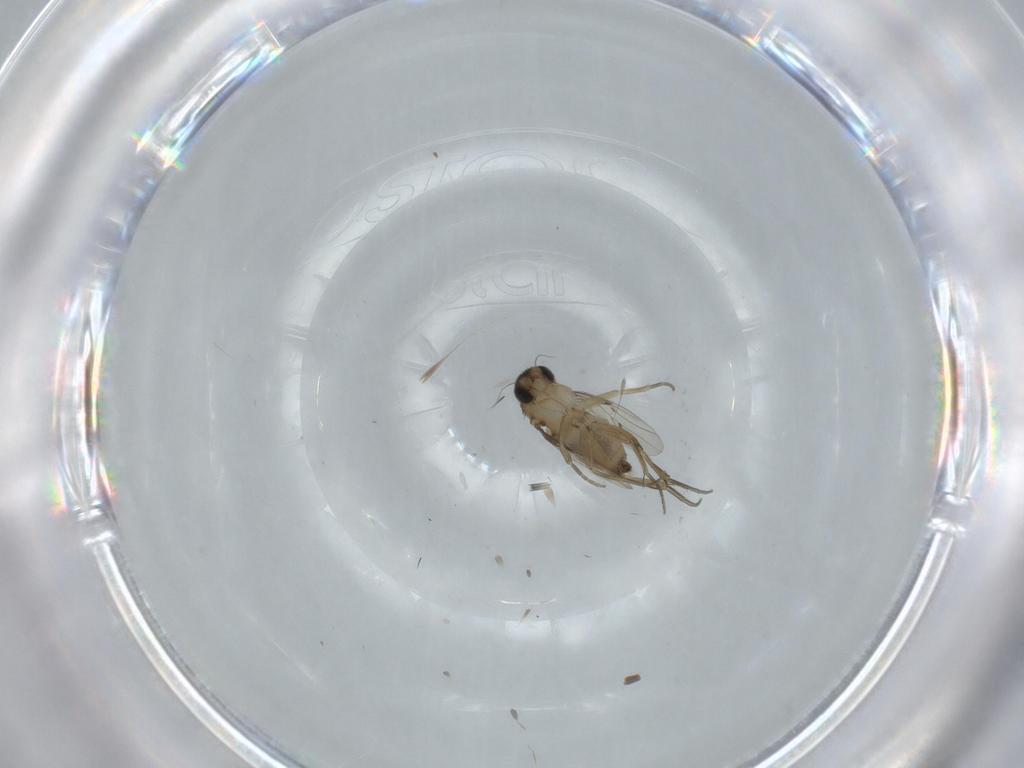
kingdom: Animalia
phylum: Arthropoda
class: Insecta
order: Diptera
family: Phoridae
